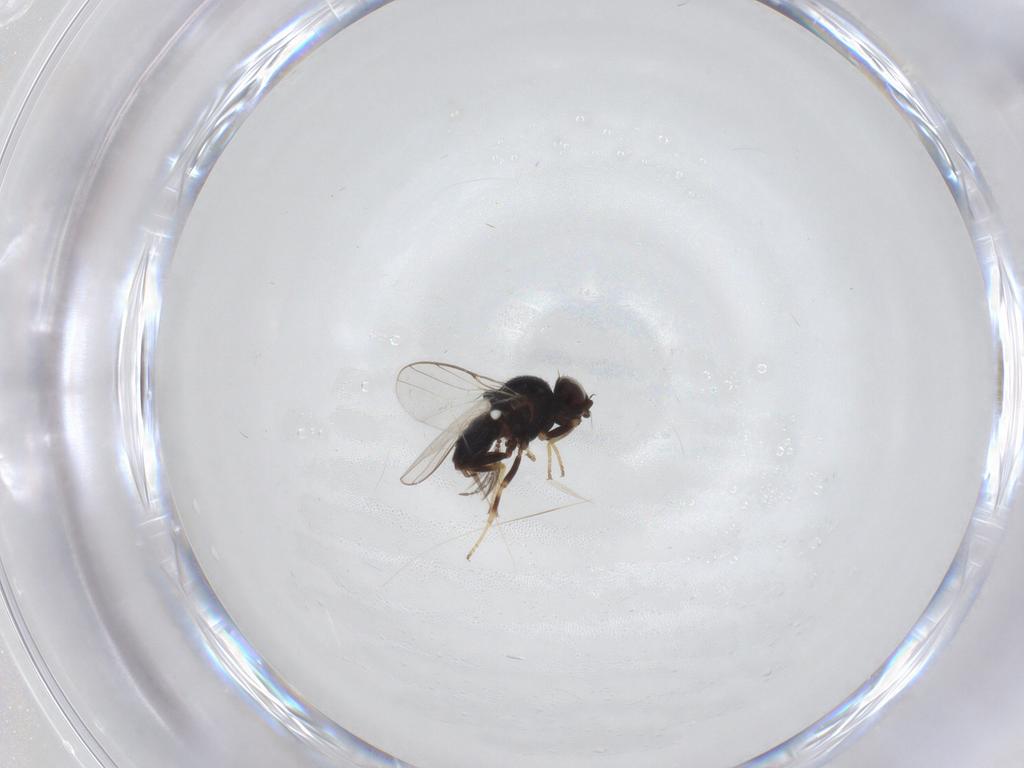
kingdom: Animalia
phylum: Arthropoda
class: Insecta
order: Diptera
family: Chloropidae
